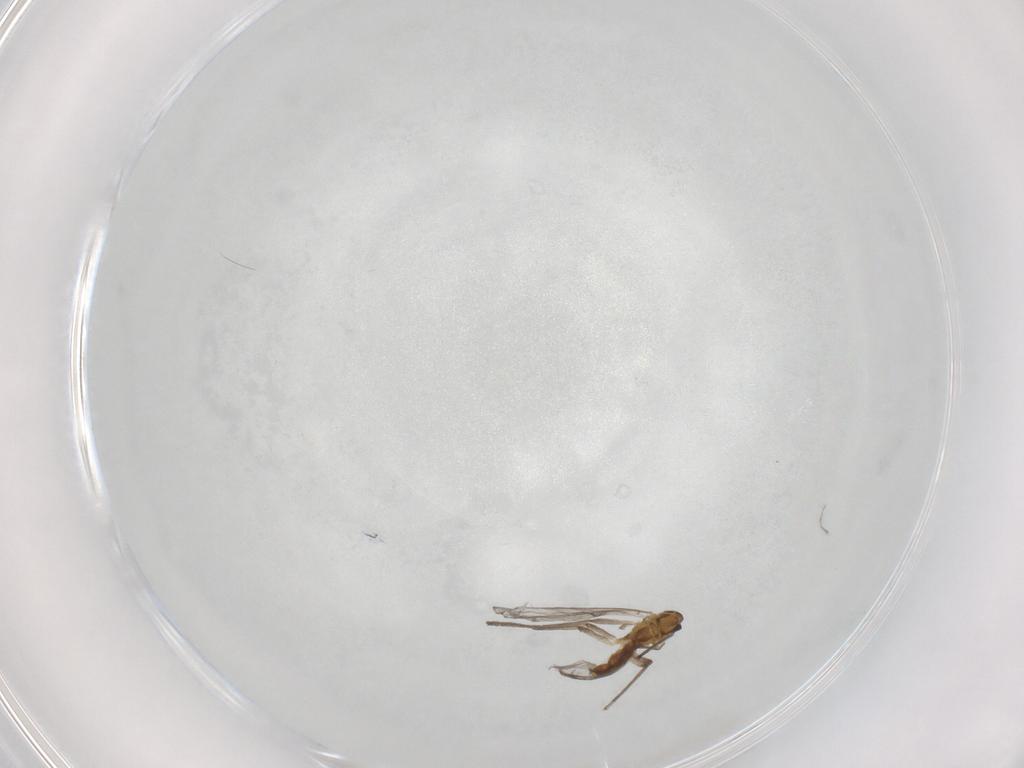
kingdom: Animalia
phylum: Arthropoda
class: Insecta
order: Diptera
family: Chironomidae
